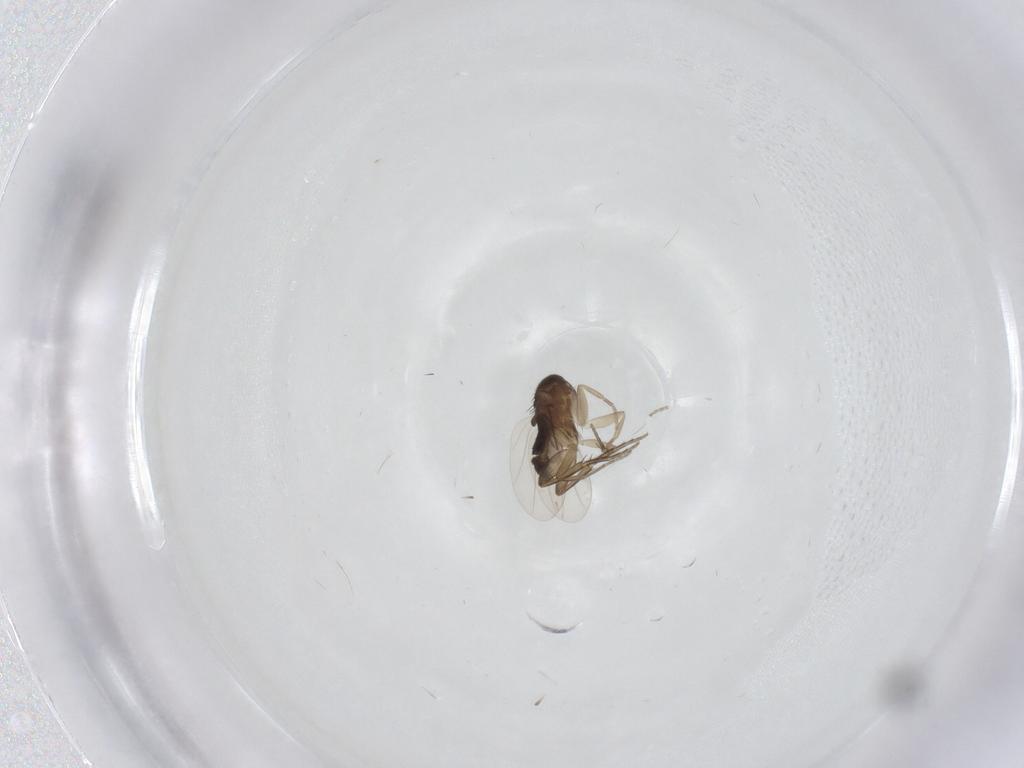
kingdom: Animalia
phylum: Arthropoda
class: Insecta
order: Diptera
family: Phoridae
